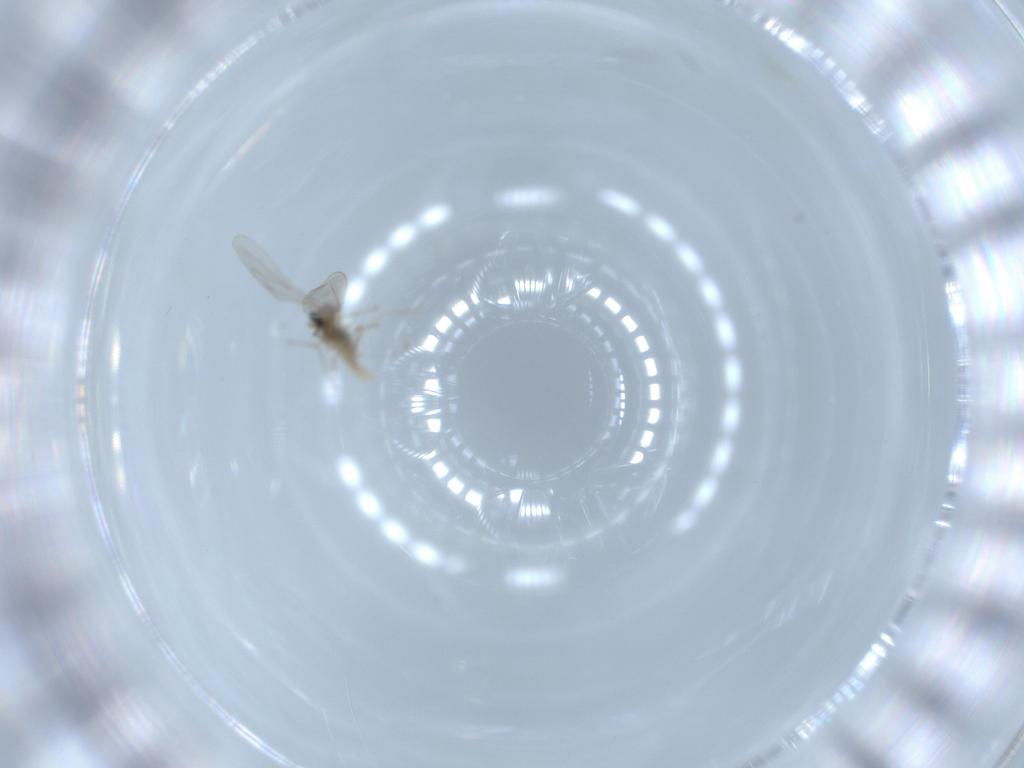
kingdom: Animalia
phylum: Arthropoda
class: Insecta
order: Diptera
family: Cecidomyiidae
